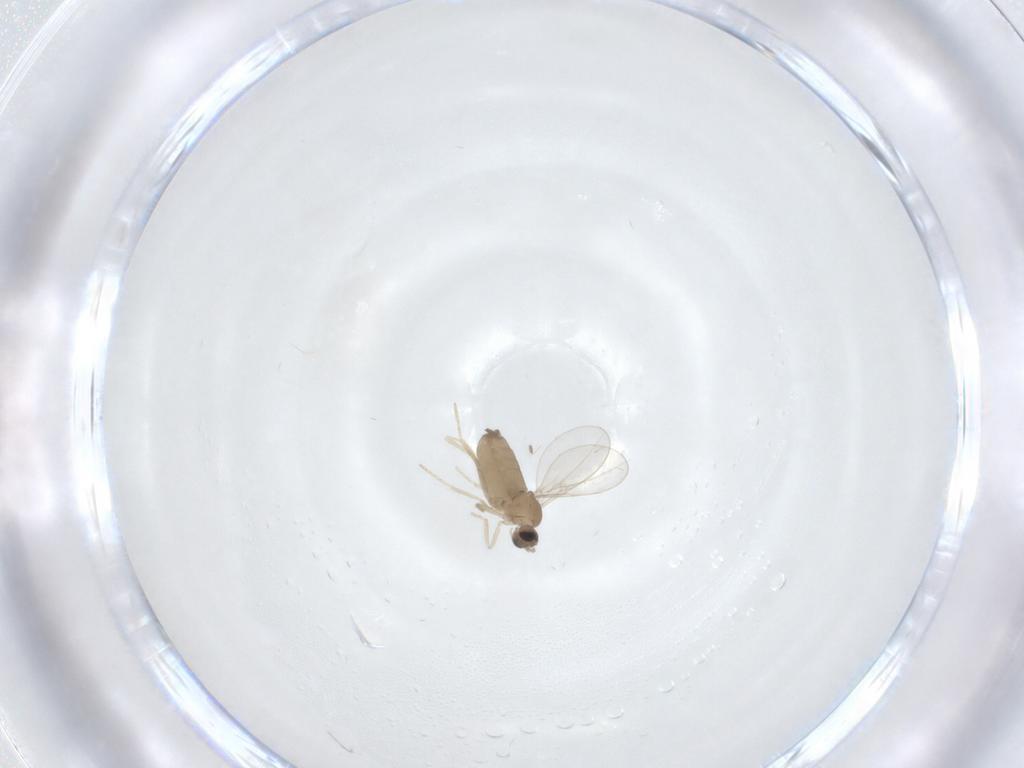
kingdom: Animalia
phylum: Arthropoda
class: Insecta
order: Diptera
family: Cecidomyiidae
